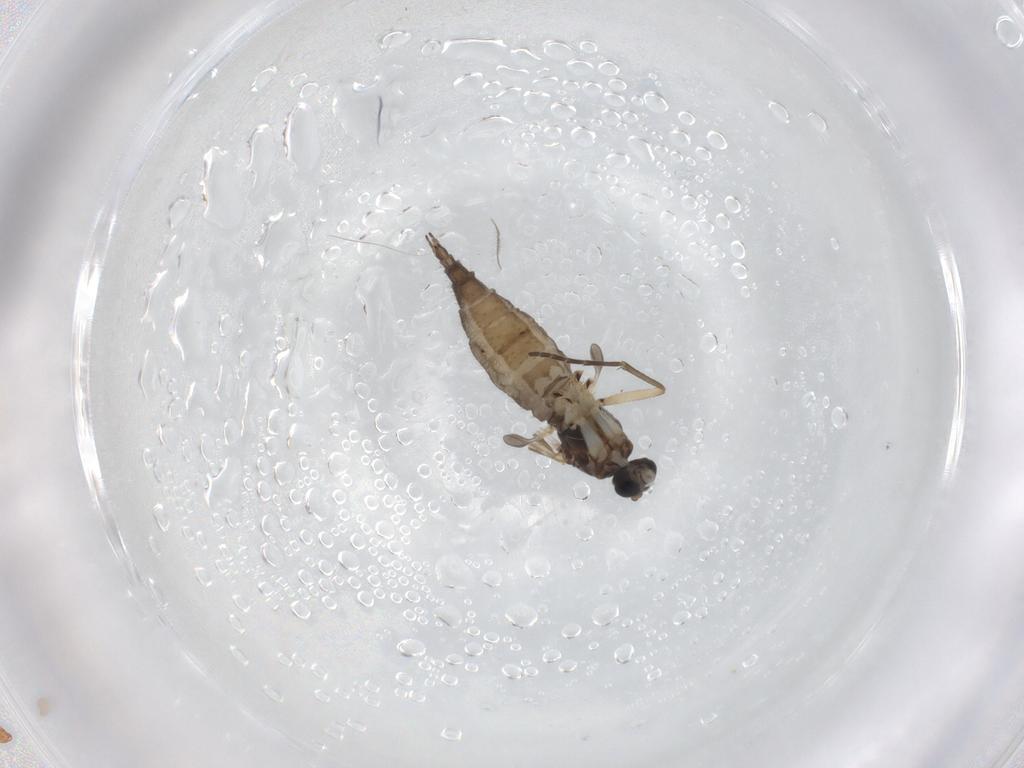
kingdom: Animalia
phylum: Arthropoda
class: Insecta
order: Diptera
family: Sciaridae
